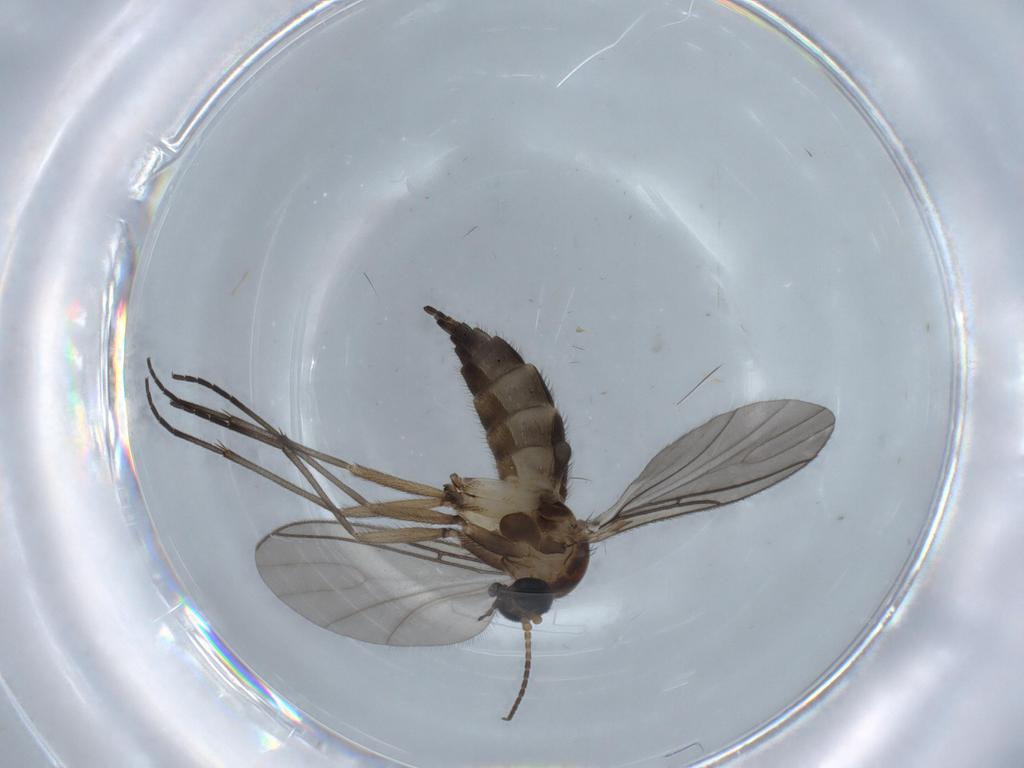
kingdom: Animalia
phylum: Arthropoda
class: Insecta
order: Diptera
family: Sciaridae
